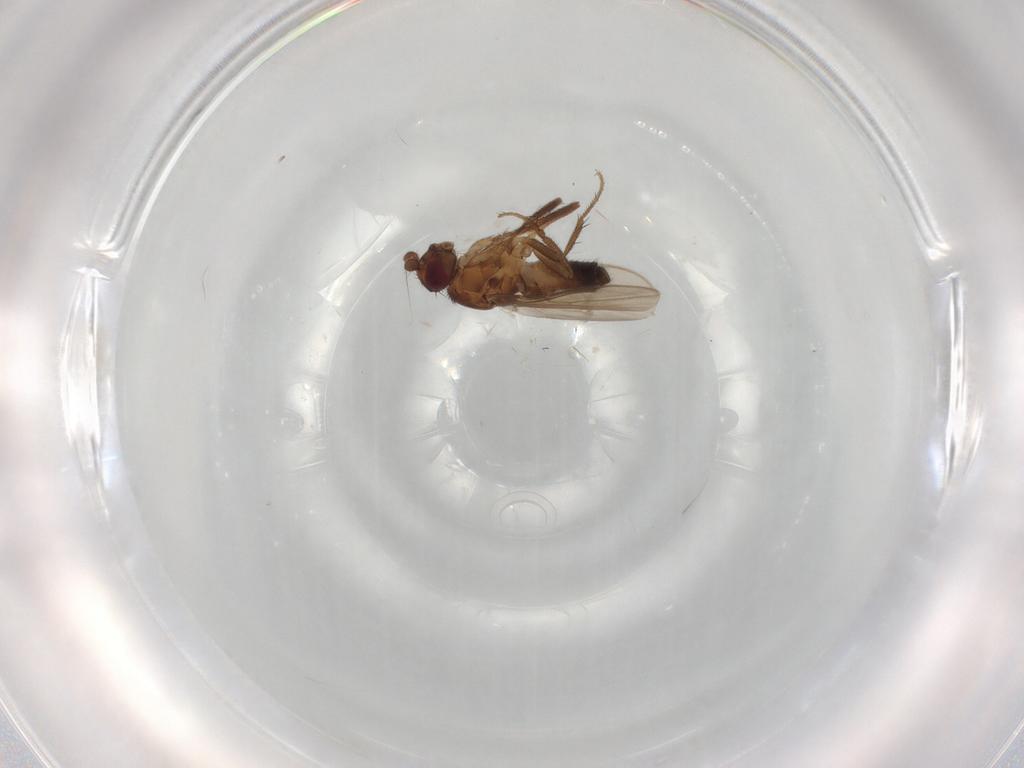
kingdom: Animalia
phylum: Arthropoda
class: Insecta
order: Diptera
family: Sphaeroceridae
